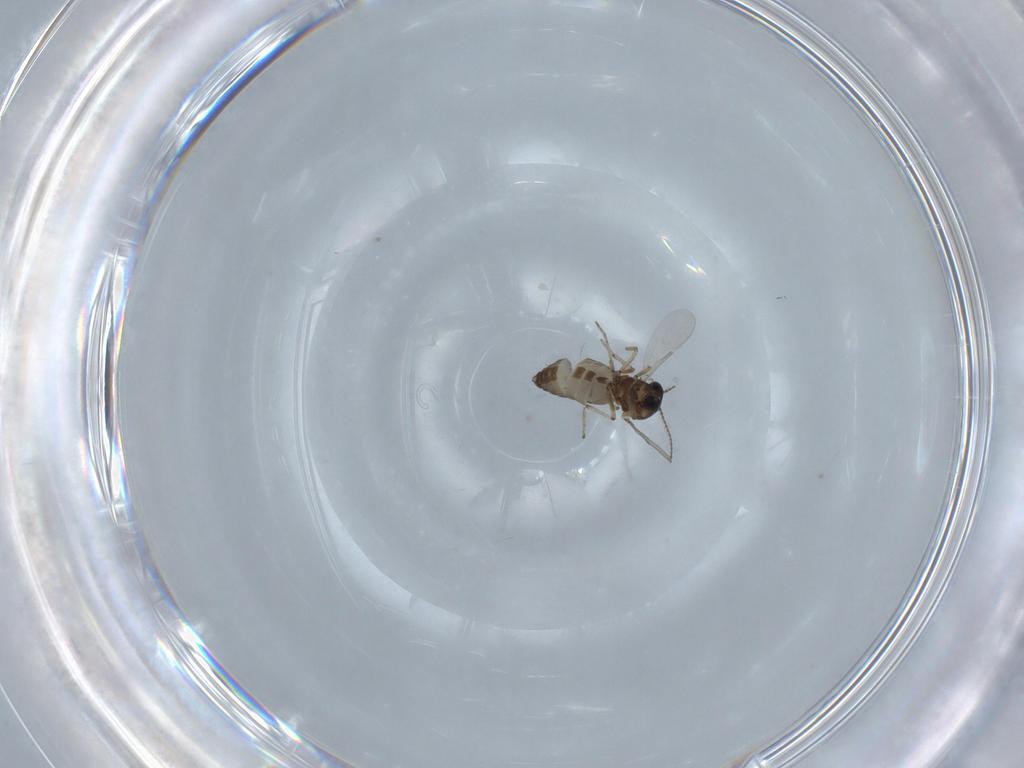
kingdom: Animalia
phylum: Arthropoda
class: Insecta
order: Diptera
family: Ceratopogonidae
